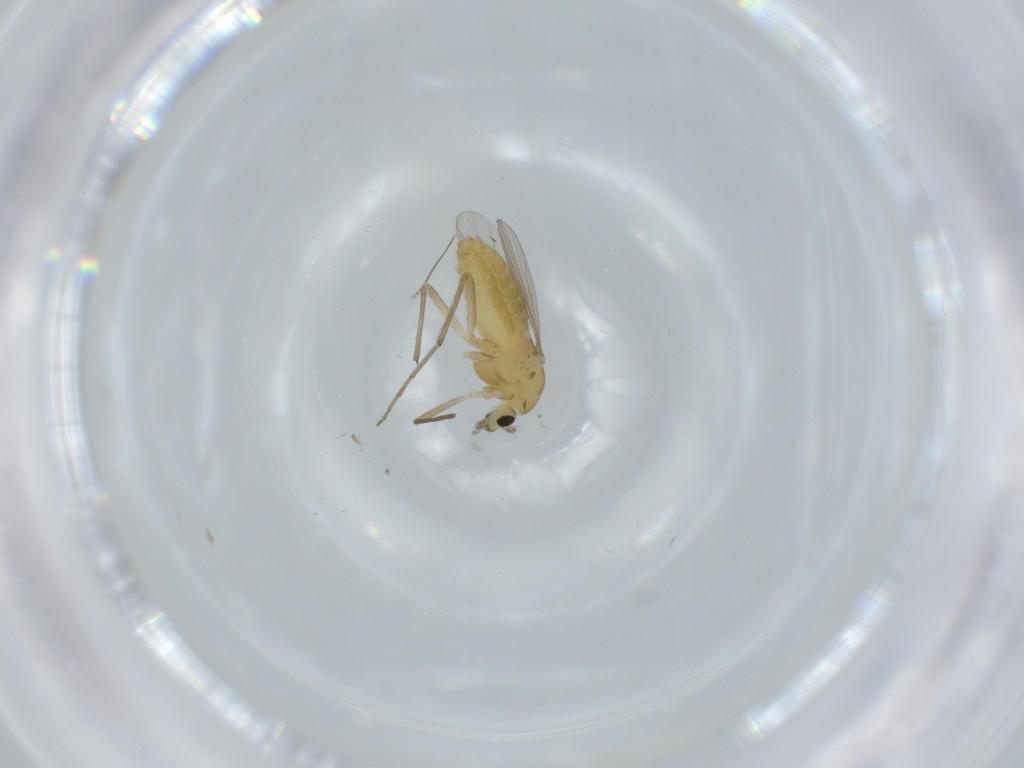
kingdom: Animalia
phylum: Arthropoda
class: Insecta
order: Diptera
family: Chironomidae
